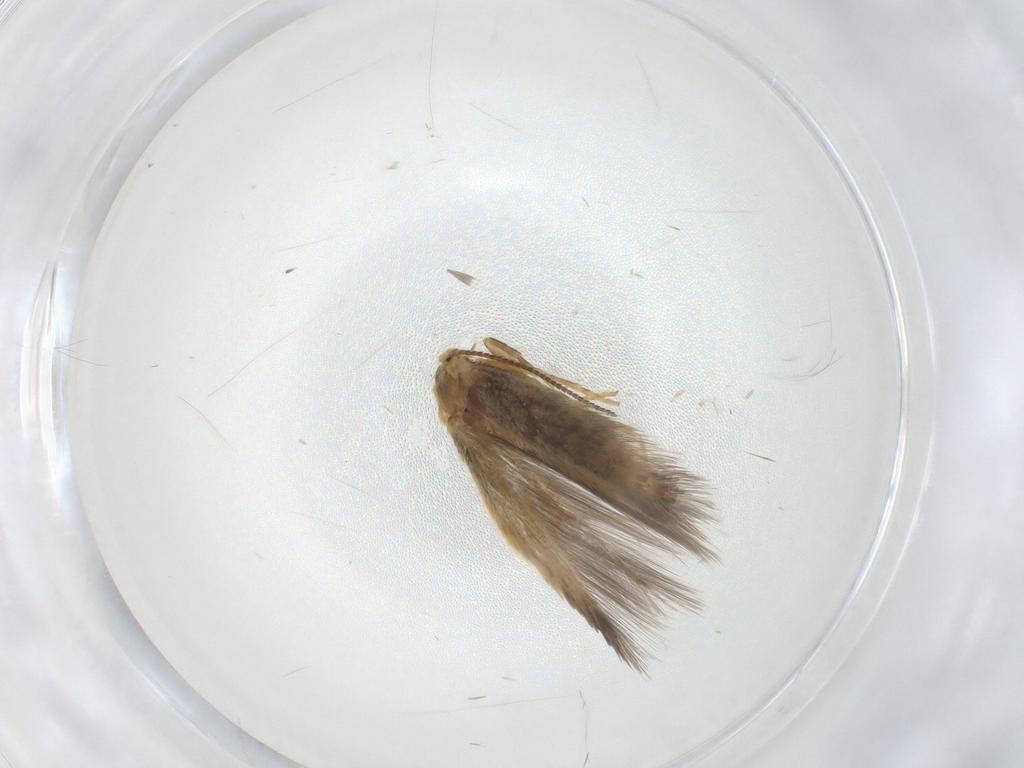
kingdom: Animalia
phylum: Arthropoda
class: Insecta
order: Lepidoptera
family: Nepticulidae
